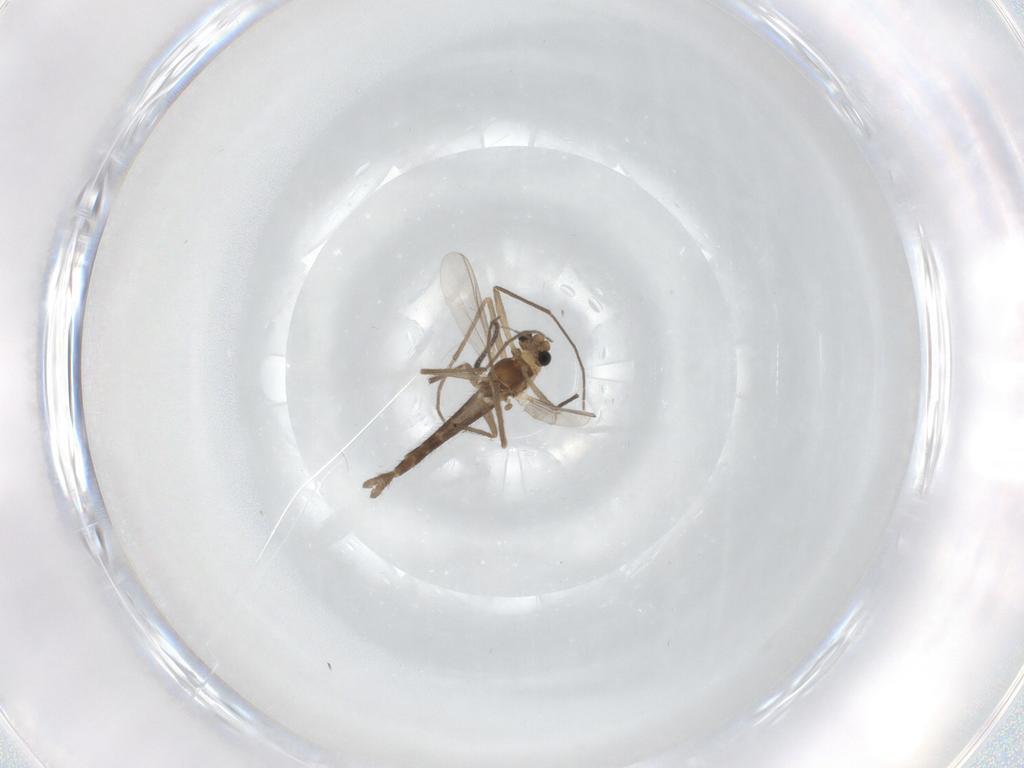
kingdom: Animalia
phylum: Arthropoda
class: Insecta
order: Diptera
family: Sciaridae
